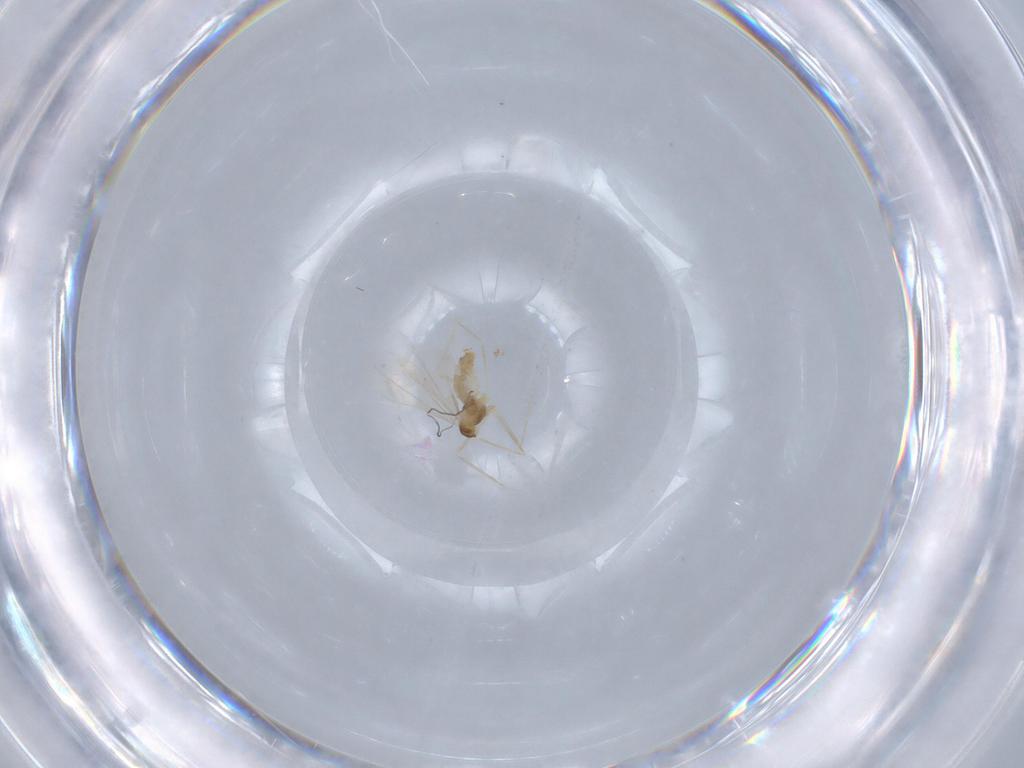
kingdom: Animalia
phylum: Arthropoda
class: Insecta
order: Diptera
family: Cecidomyiidae
